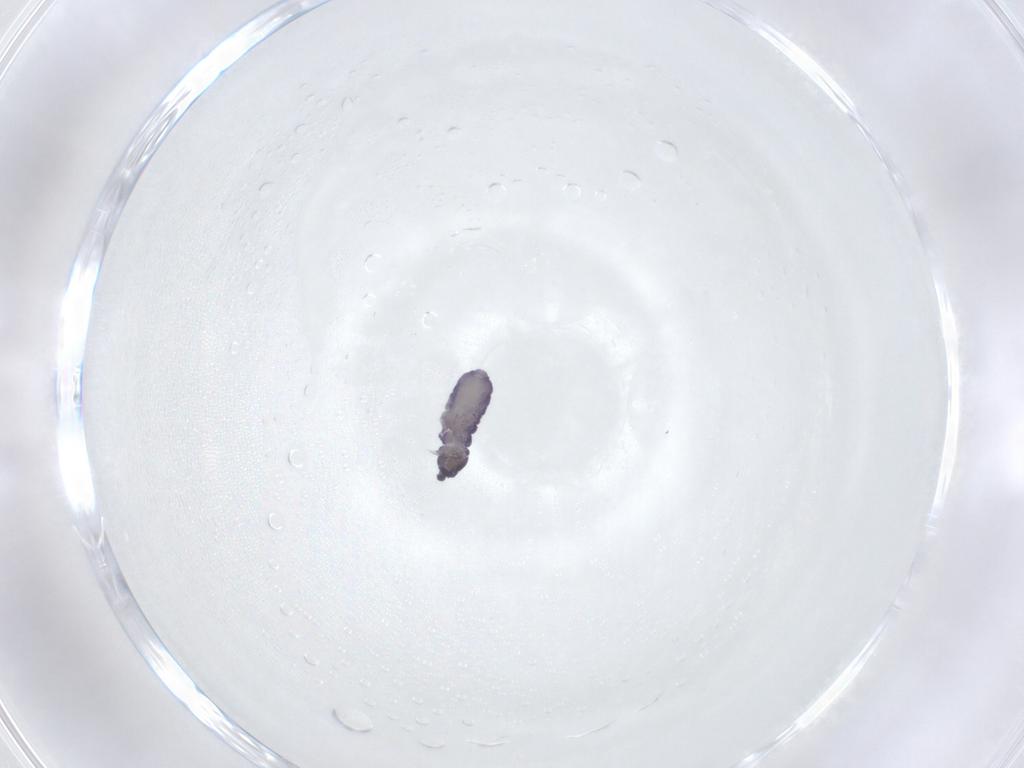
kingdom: Animalia
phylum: Arthropoda
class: Collembola
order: Poduromorpha
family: Neanuridae
